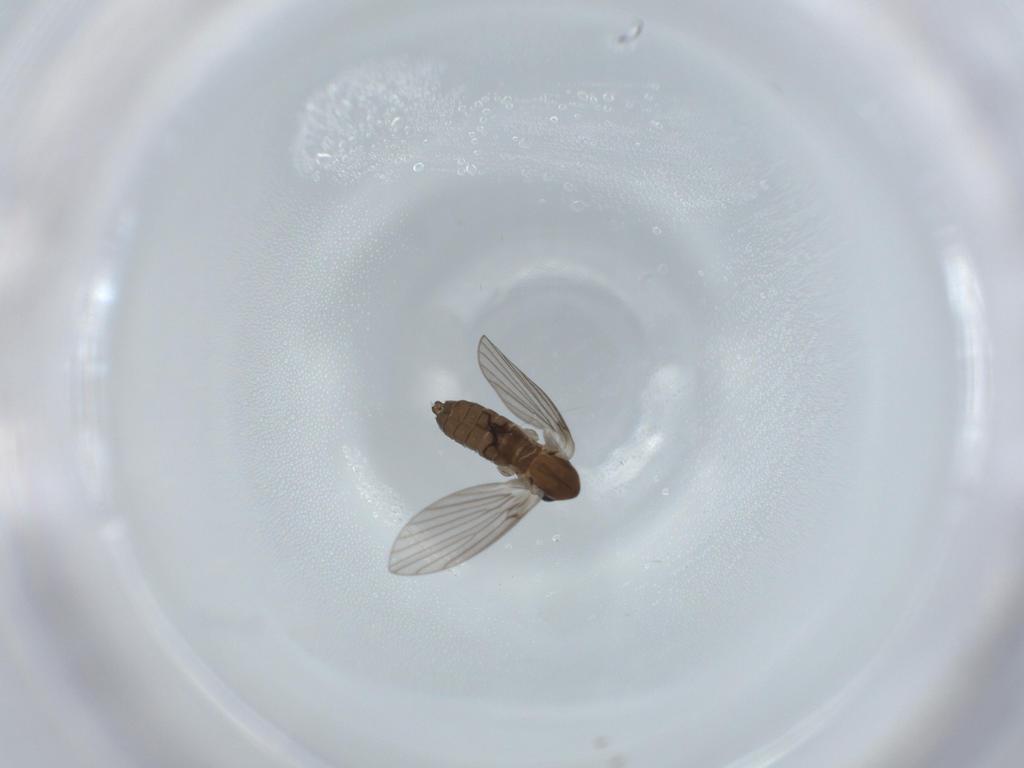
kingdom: Animalia
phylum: Arthropoda
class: Insecta
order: Diptera
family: Psychodidae
